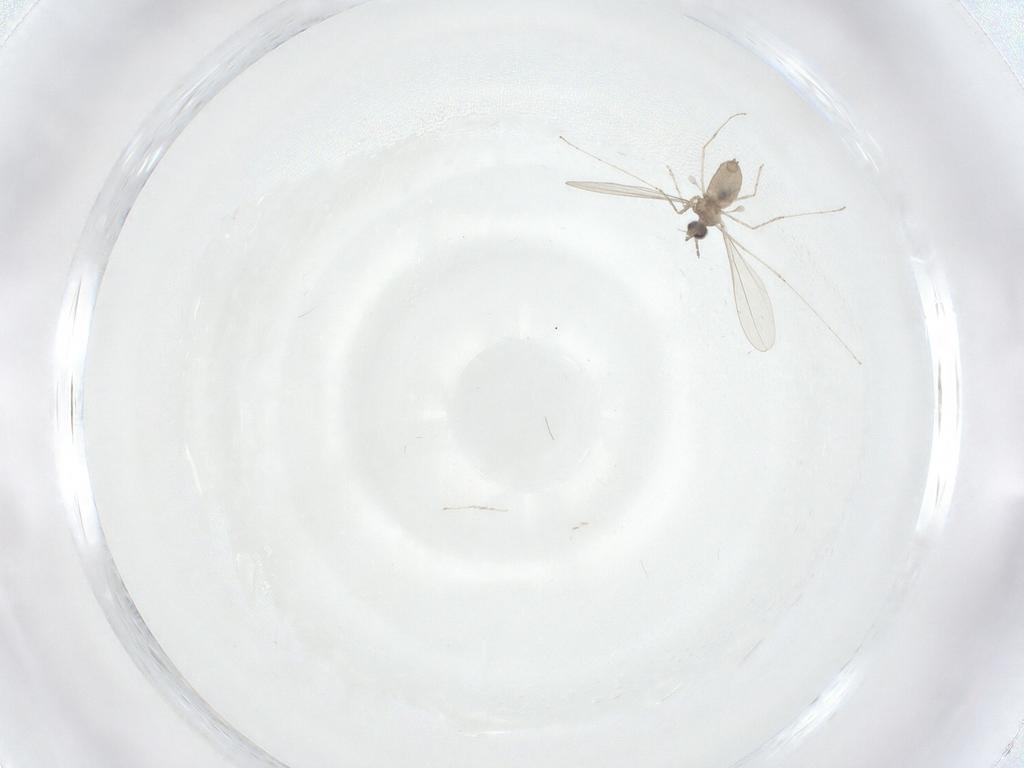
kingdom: Animalia
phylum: Arthropoda
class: Insecta
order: Diptera
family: Cecidomyiidae
